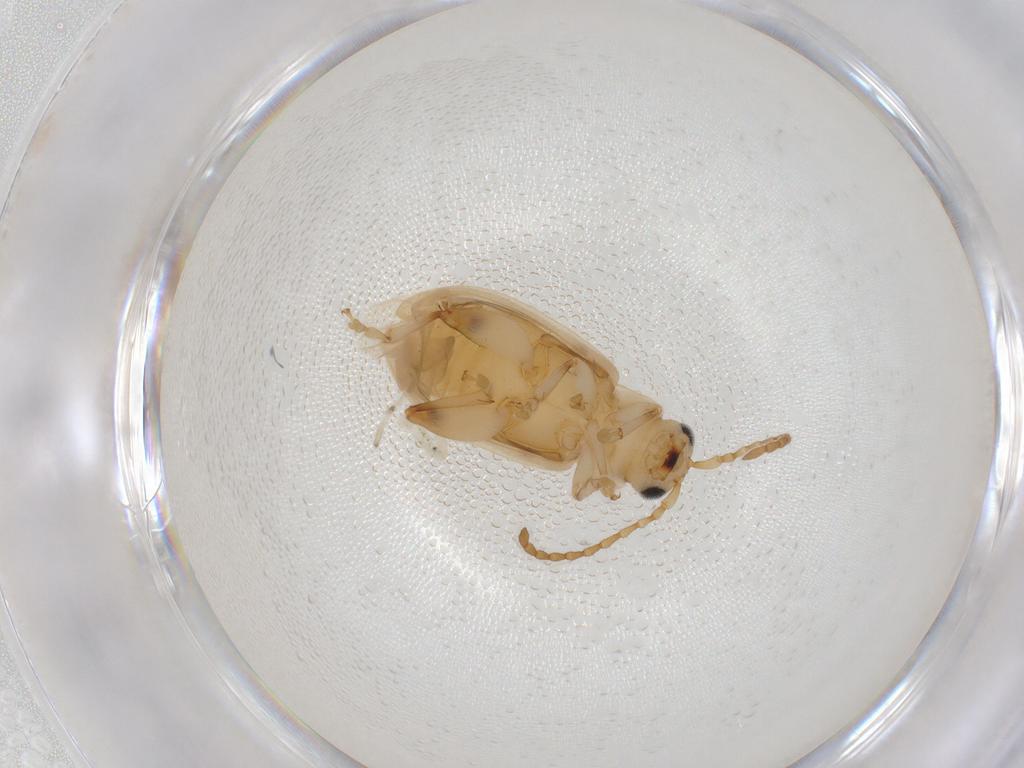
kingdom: Animalia
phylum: Arthropoda
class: Insecta
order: Coleoptera
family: Chrysomelidae
